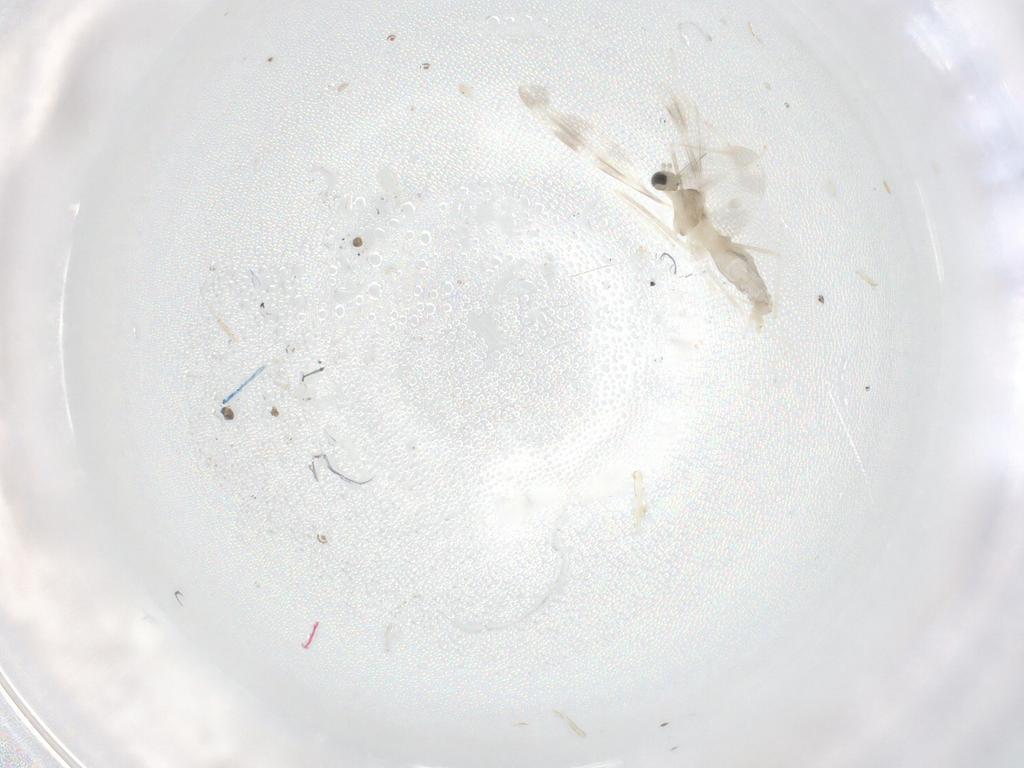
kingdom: Animalia
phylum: Arthropoda
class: Insecta
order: Diptera
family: Cecidomyiidae
